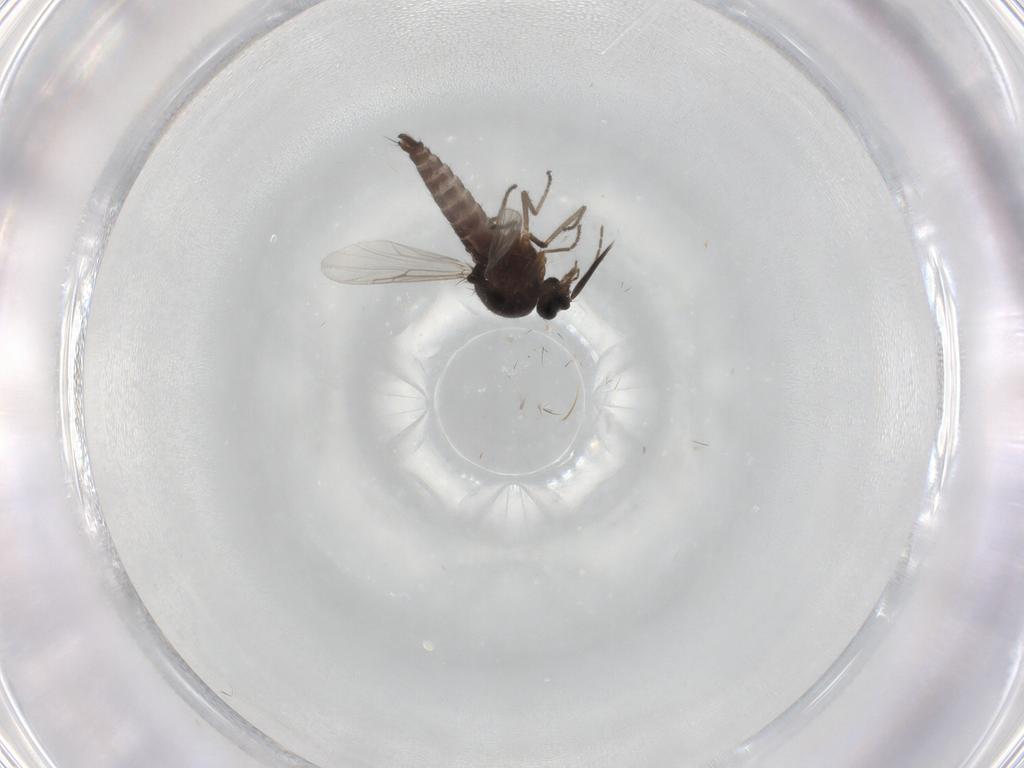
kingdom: Animalia
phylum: Arthropoda
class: Insecta
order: Diptera
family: Ceratopogonidae
